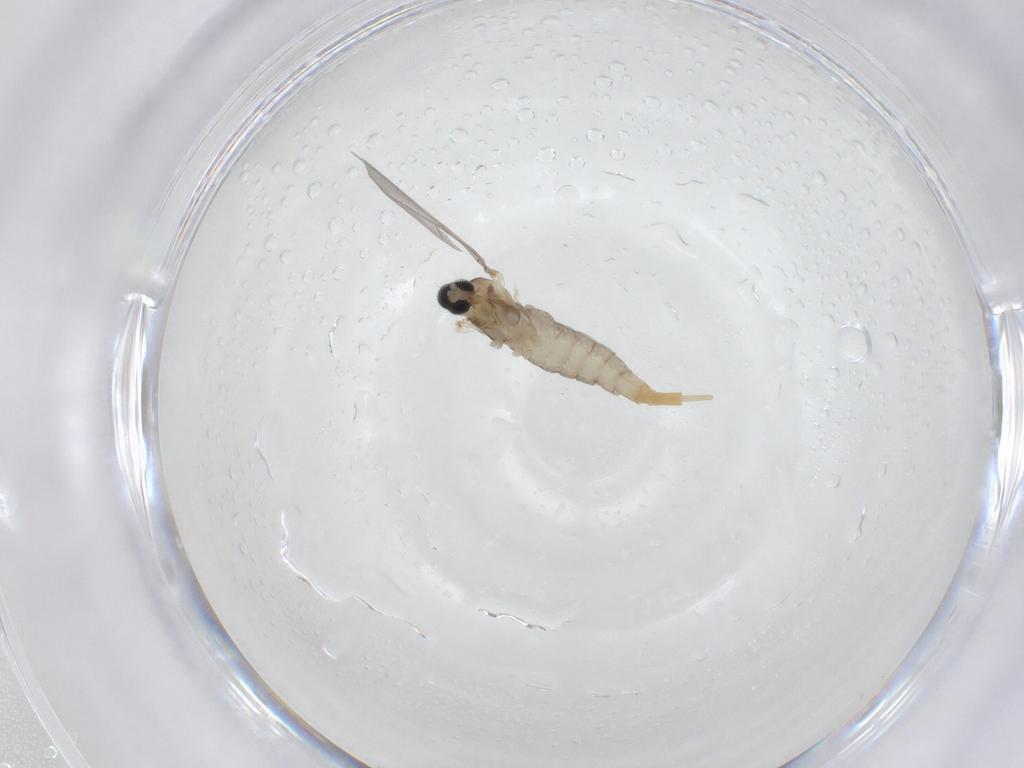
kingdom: Animalia
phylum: Arthropoda
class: Insecta
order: Diptera
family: Cecidomyiidae
